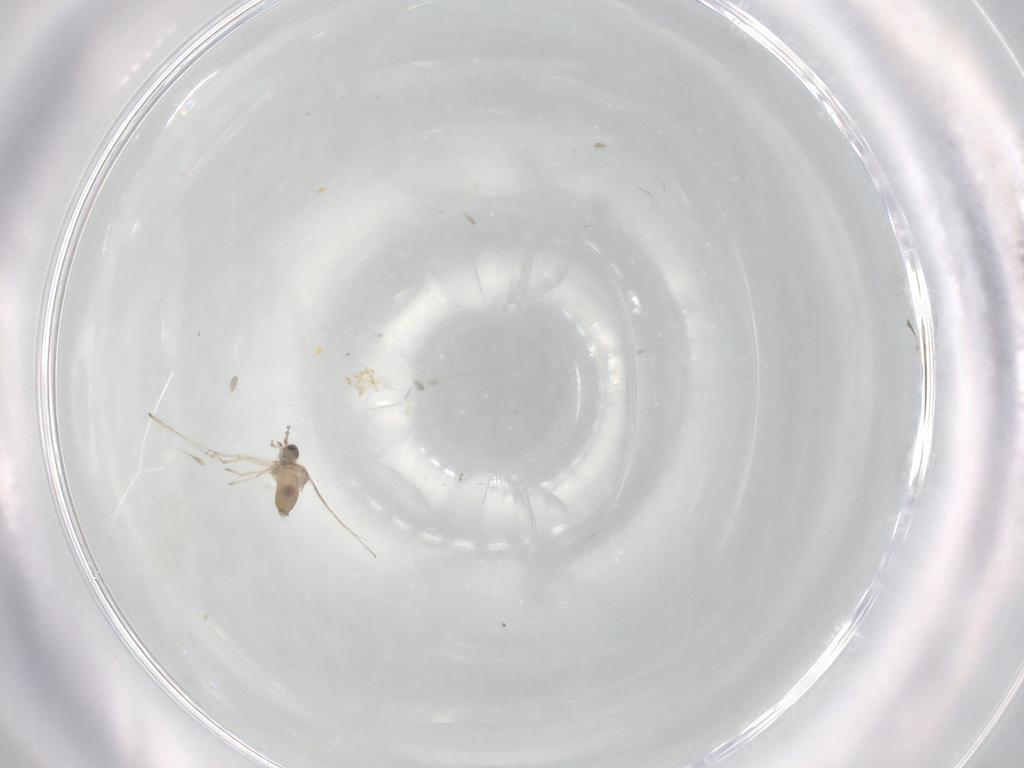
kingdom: Animalia
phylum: Arthropoda
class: Insecta
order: Diptera
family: Cecidomyiidae
